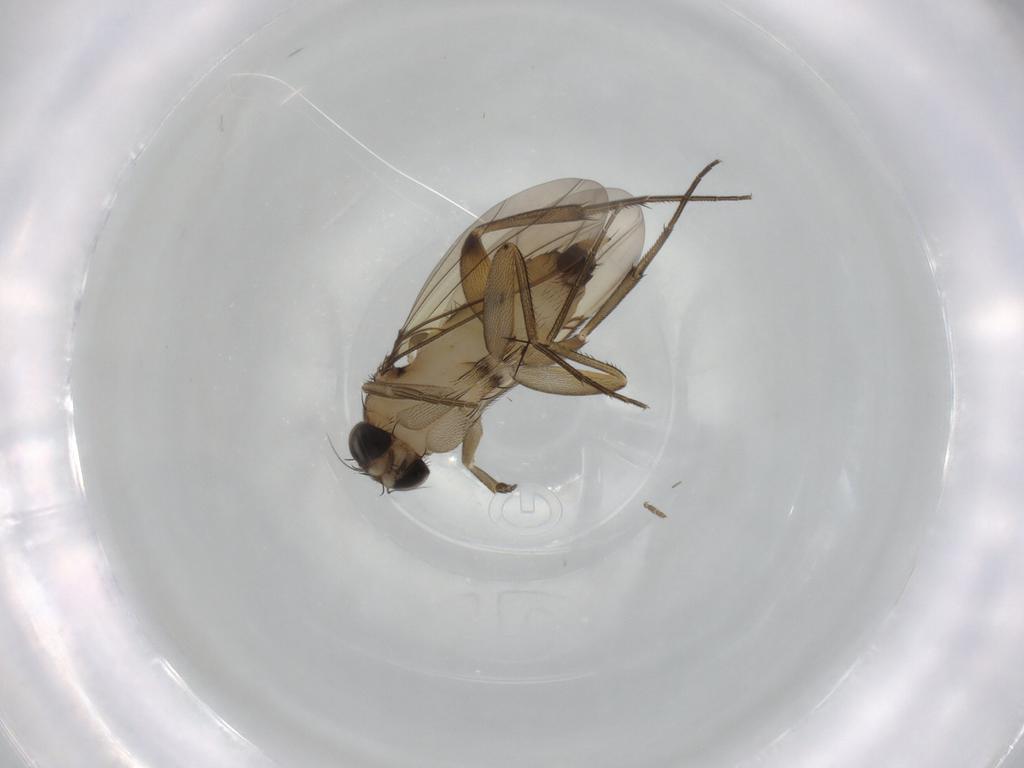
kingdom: Animalia
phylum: Arthropoda
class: Insecta
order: Diptera
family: Phoridae
